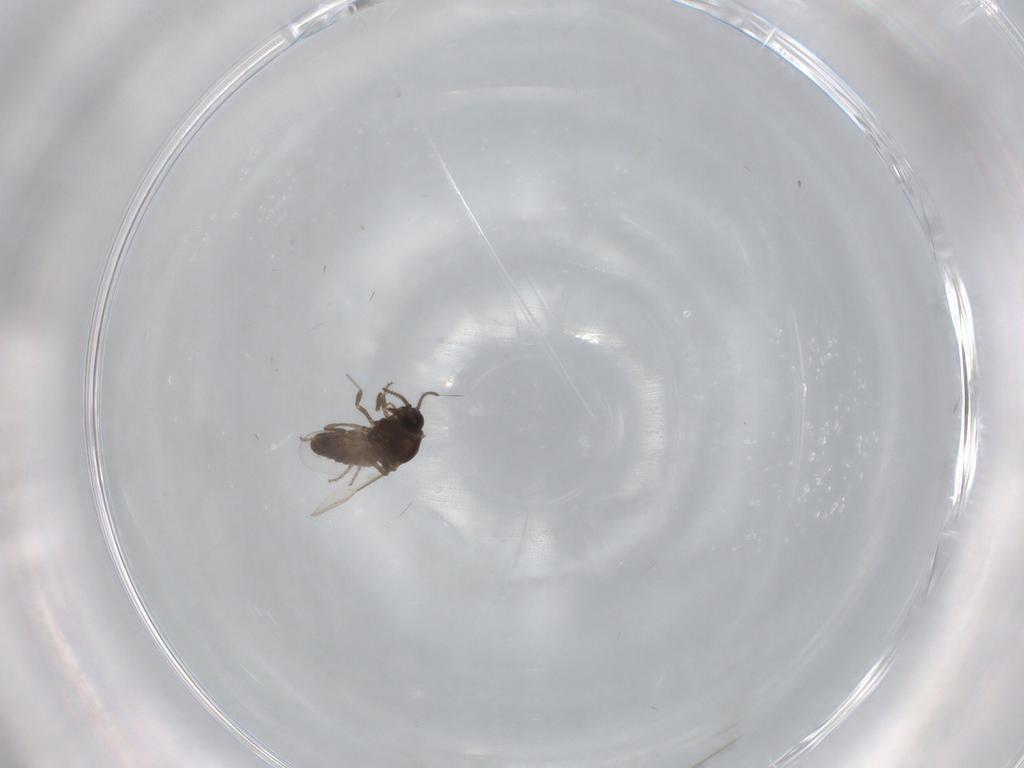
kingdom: Animalia
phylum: Arthropoda
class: Insecta
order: Diptera
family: Ceratopogonidae
